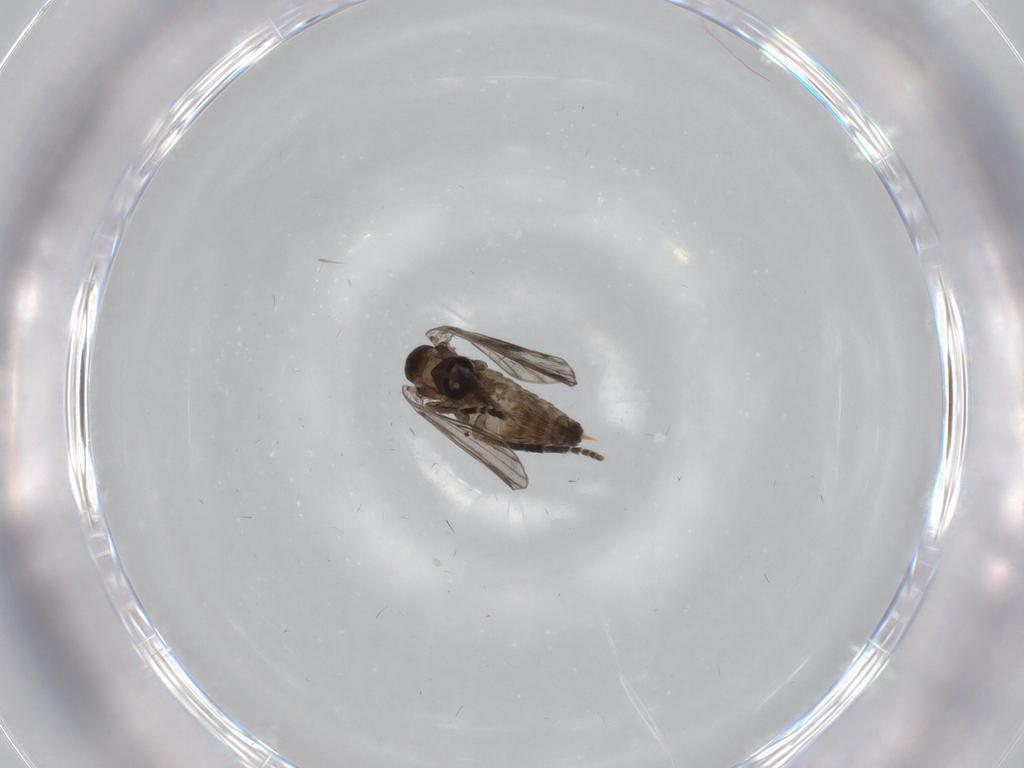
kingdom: Animalia
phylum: Arthropoda
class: Insecta
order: Diptera
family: Psychodidae
